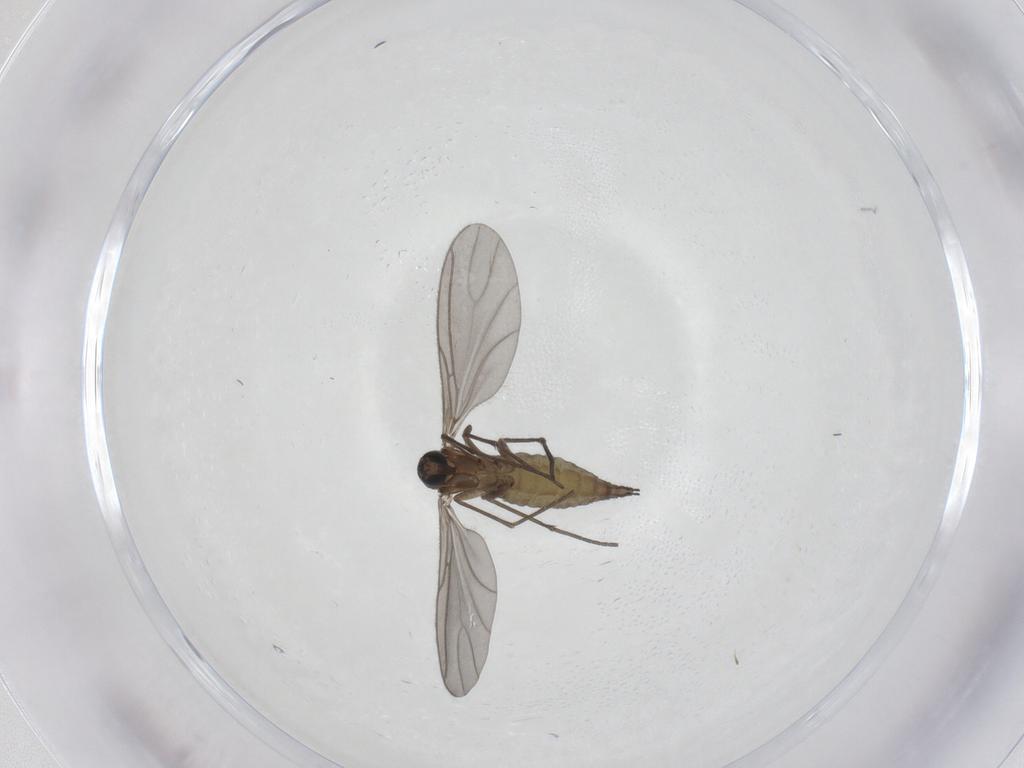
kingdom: Animalia
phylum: Arthropoda
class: Insecta
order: Diptera
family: Sciaridae
